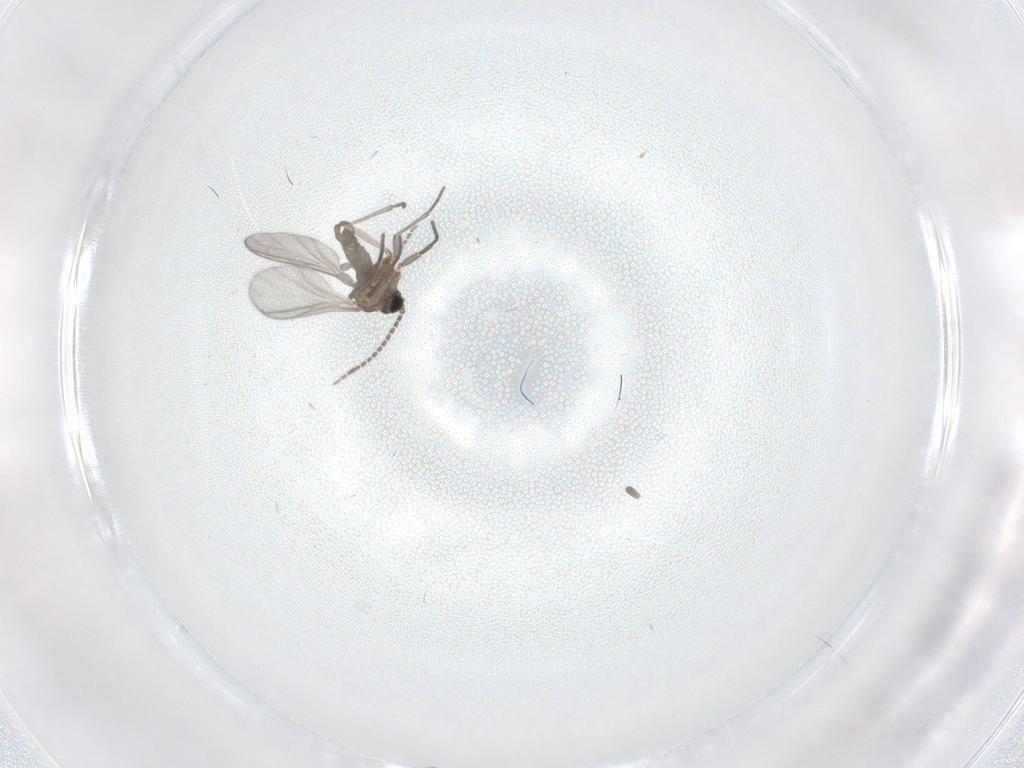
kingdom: Animalia
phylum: Arthropoda
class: Insecta
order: Diptera
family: Sciaridae
